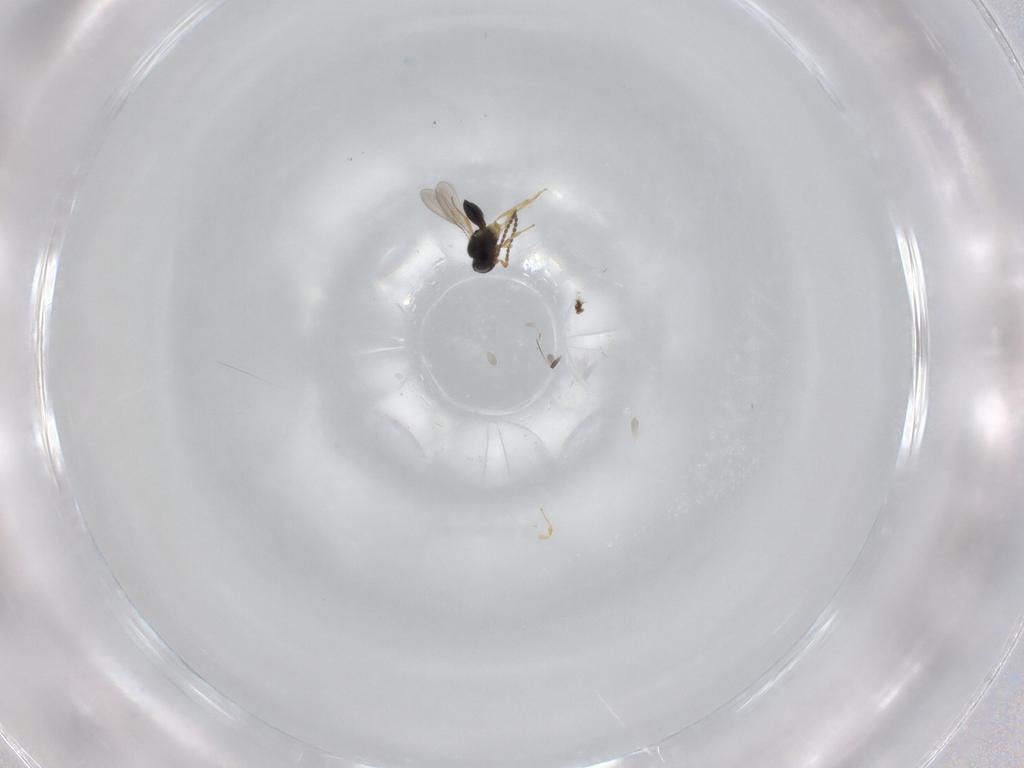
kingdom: Animalia
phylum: Arthropoda
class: Insecta
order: Hymenoptera
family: Scelionidae
